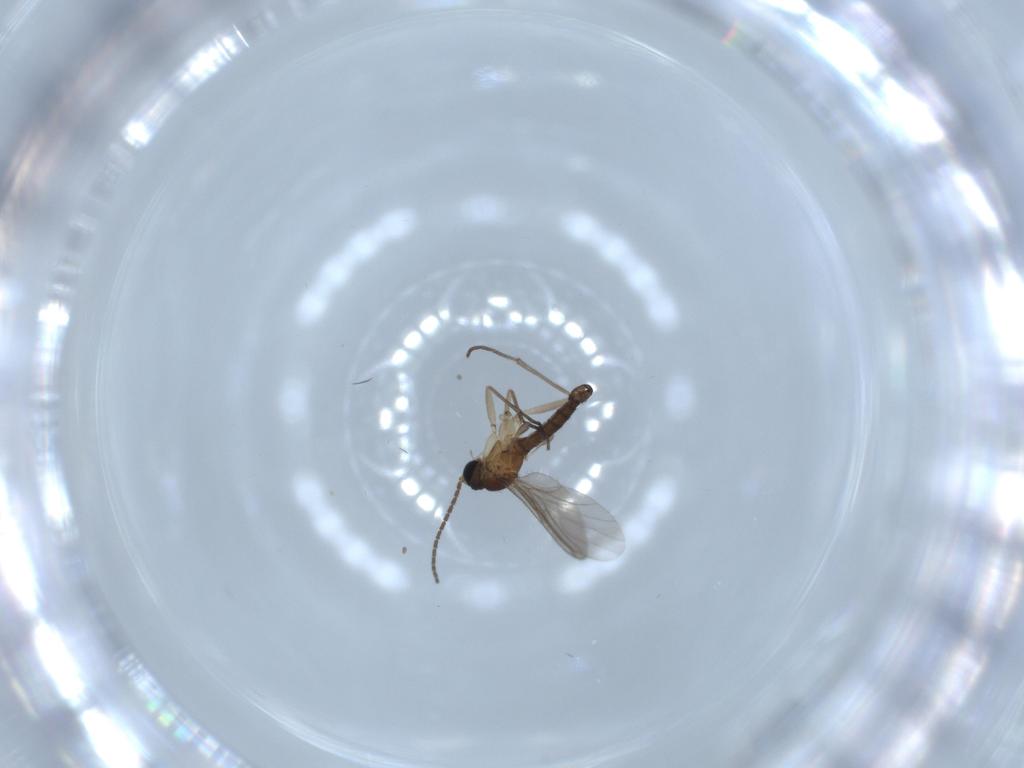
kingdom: Animalia
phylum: Arthropoda
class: Insecta
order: Diptera
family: Sciaridae
